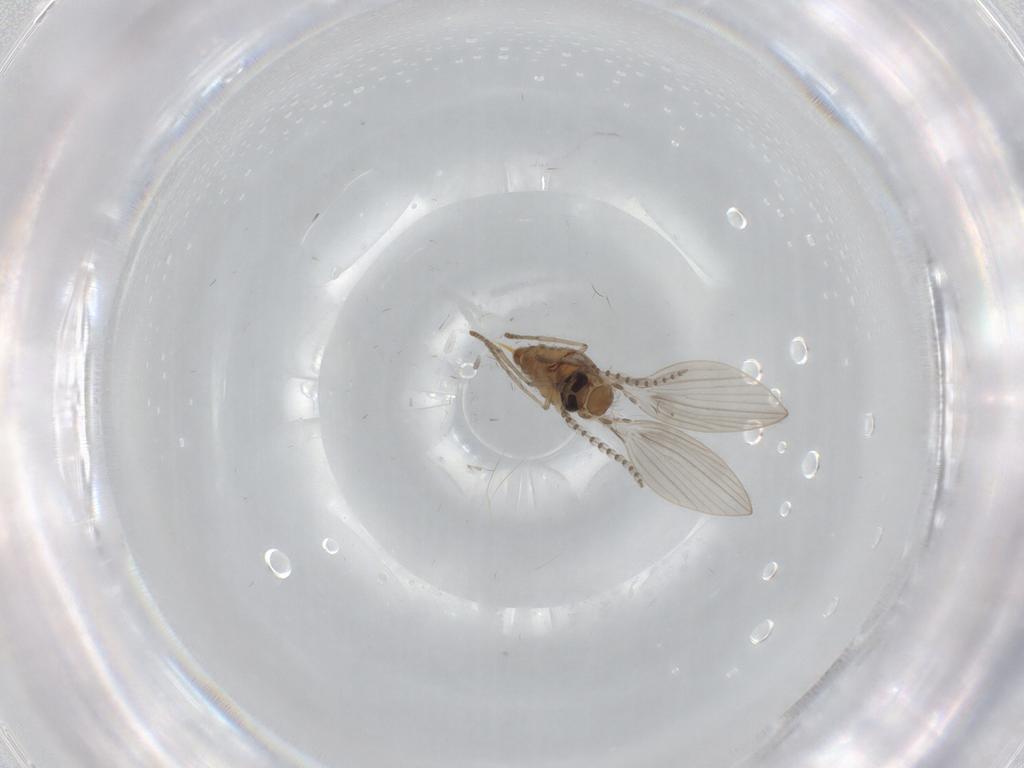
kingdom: Animalia
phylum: Arthropoda
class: Insecta
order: Diptera
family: Psychodidae
